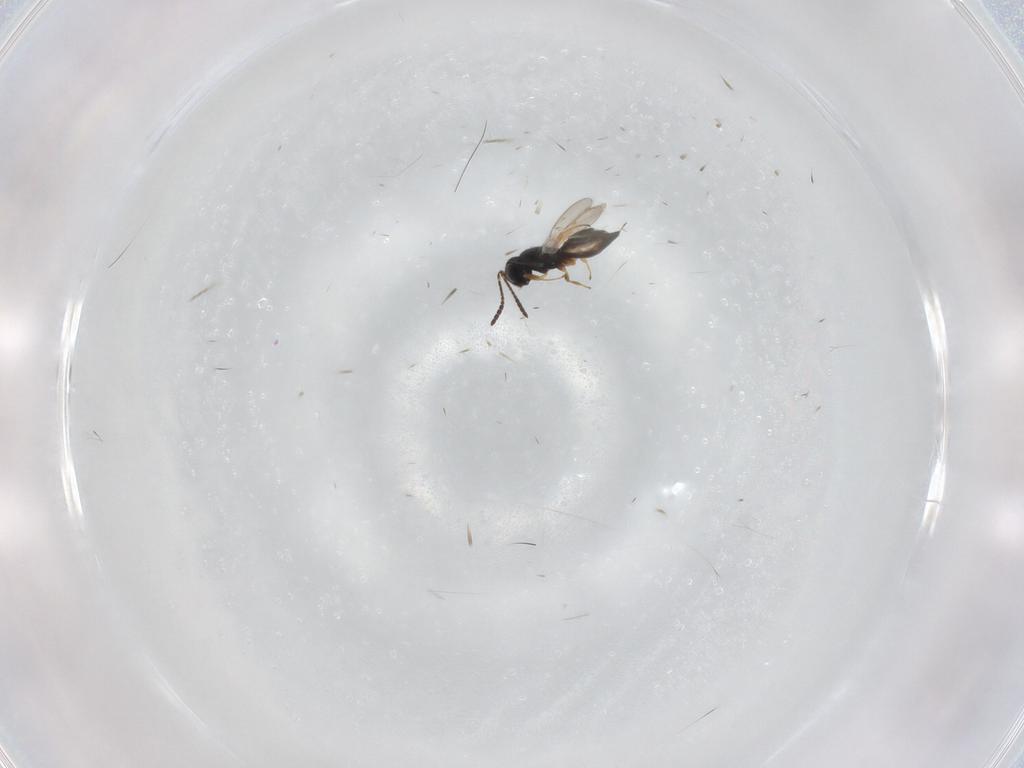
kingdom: Animalia
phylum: Arthropoda
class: Insecta
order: Hymenoptera
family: Scelionidae
